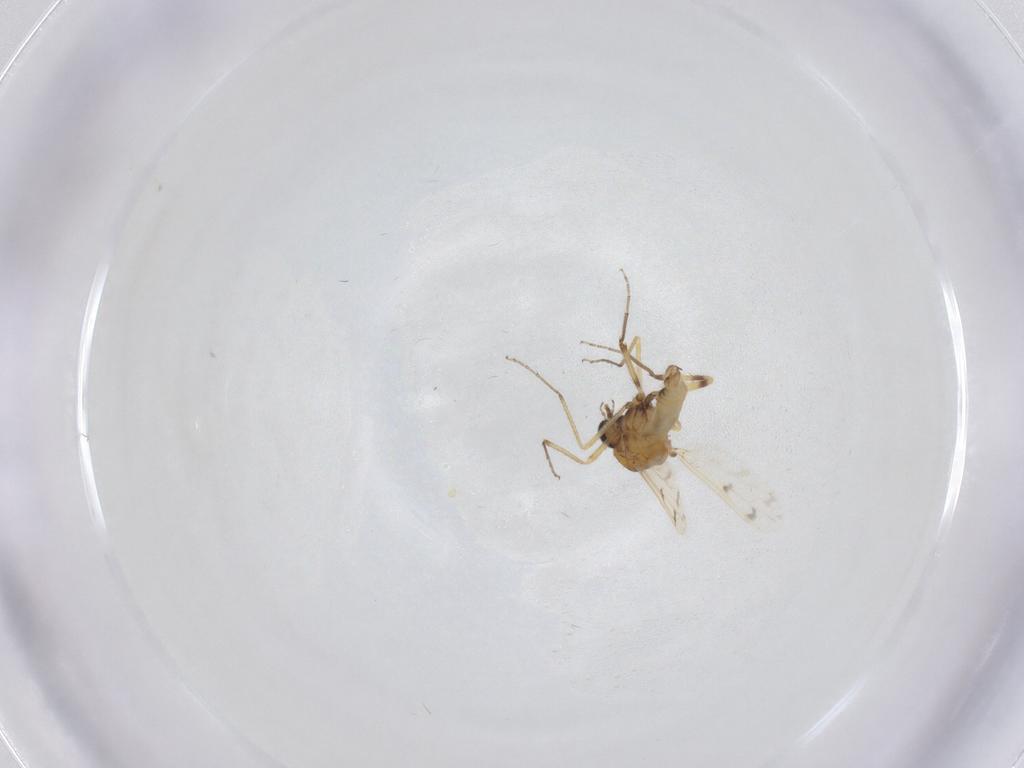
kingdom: Animalia
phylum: Arthropoda
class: Insecta
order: Diptera
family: Ceratopogonidae
